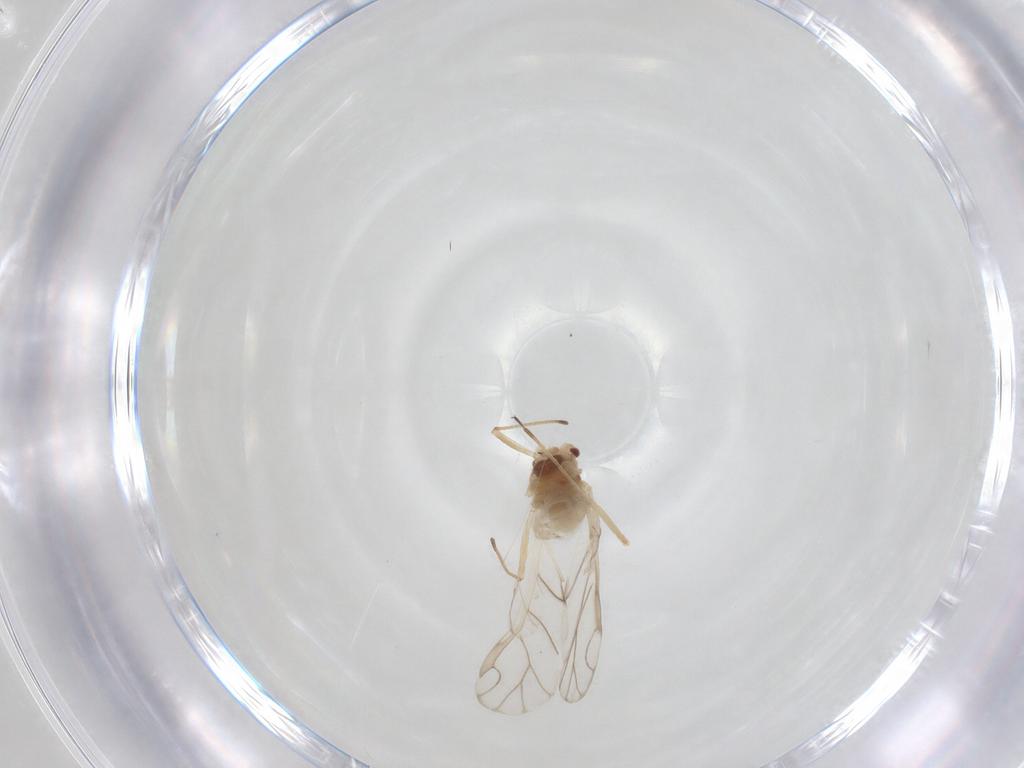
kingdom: Animalia
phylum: Arthropoda
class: Insecta
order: Hemiptera
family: Aphididae
